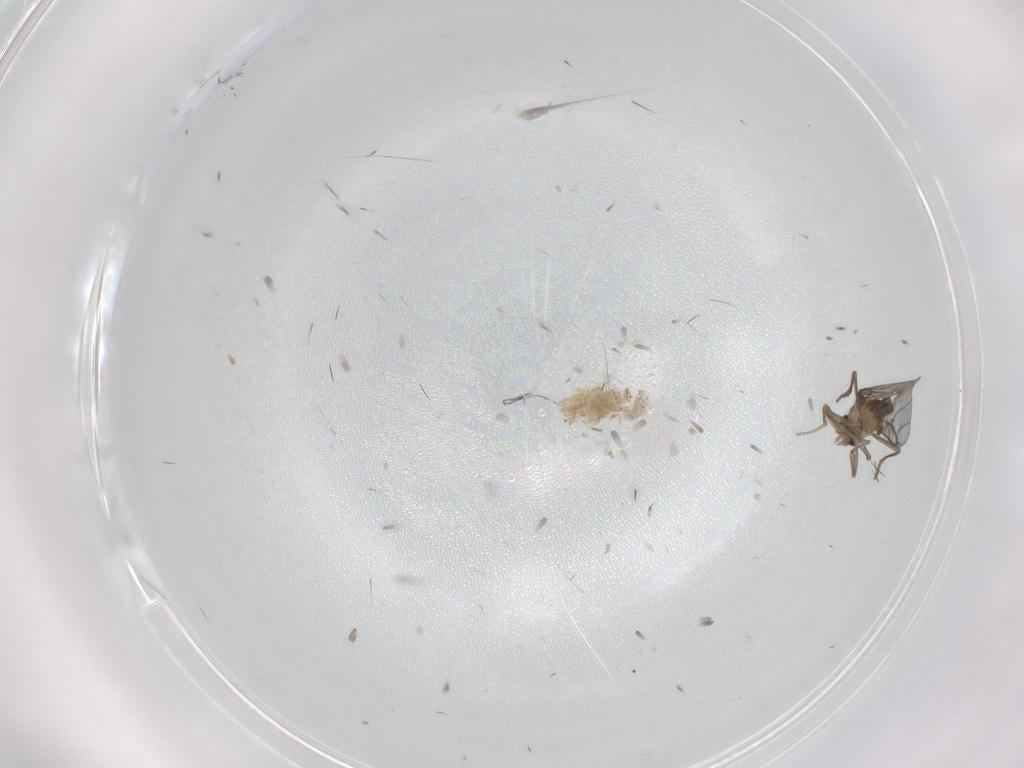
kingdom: Animalia
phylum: Arthropoda
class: Insecta
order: Diptera
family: Cecidomyiidae
